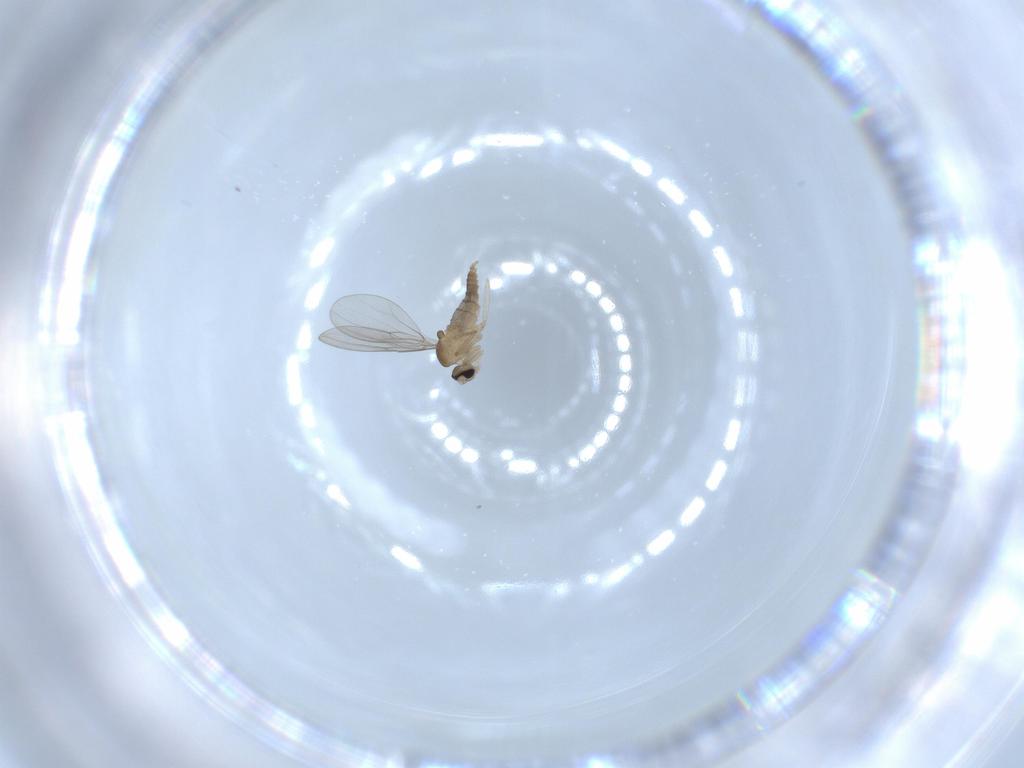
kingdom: Animalia
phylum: Arthropoda
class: Insecta
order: Diptera
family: Cecidomyiidae
